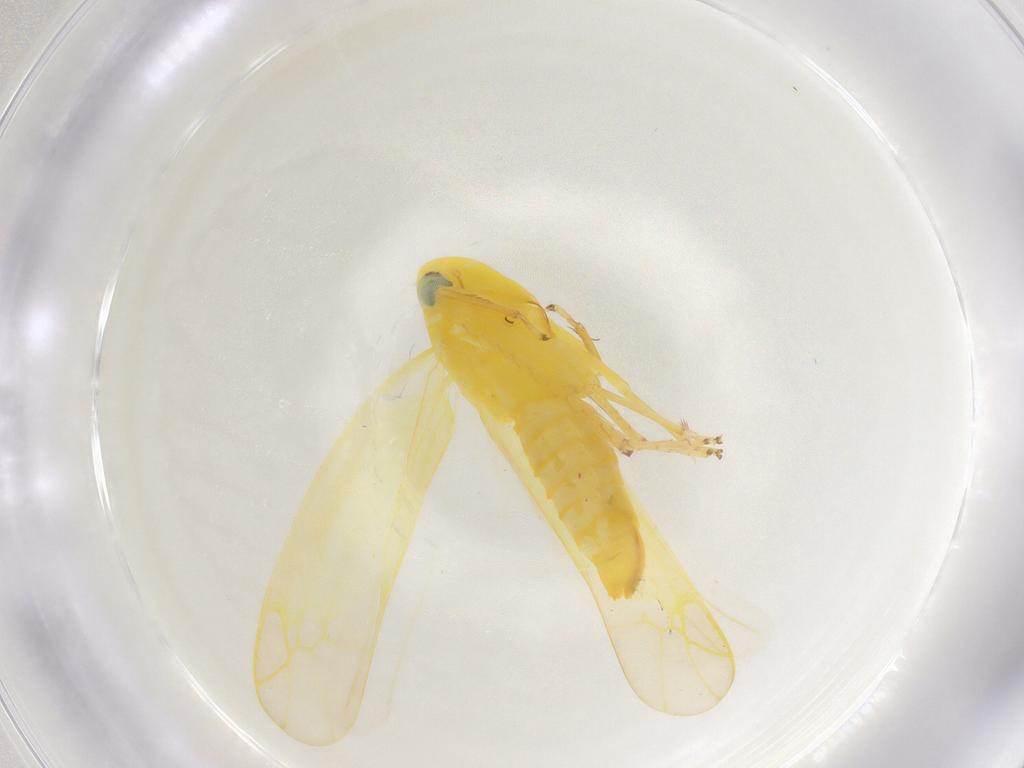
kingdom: Animalia
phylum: Arthropoda
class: Insecta
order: Hemiptera
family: Cicadellidae
